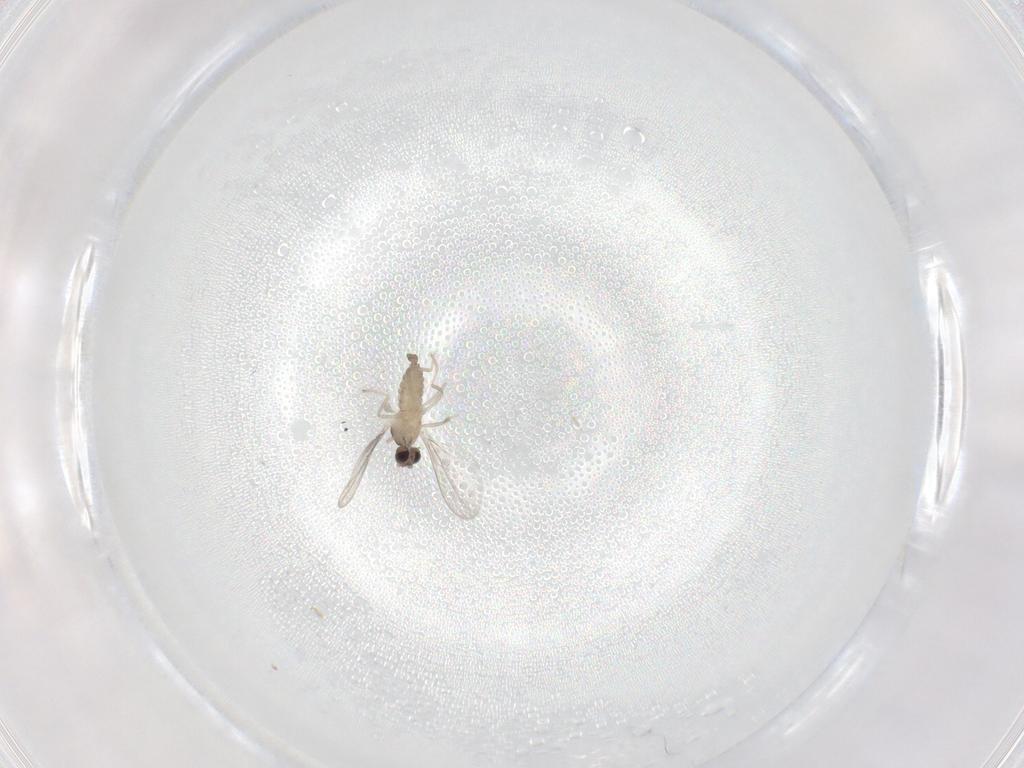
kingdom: Animalia
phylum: Arthropoda
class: Insecta
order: Diptera
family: Cecidomyiidae
